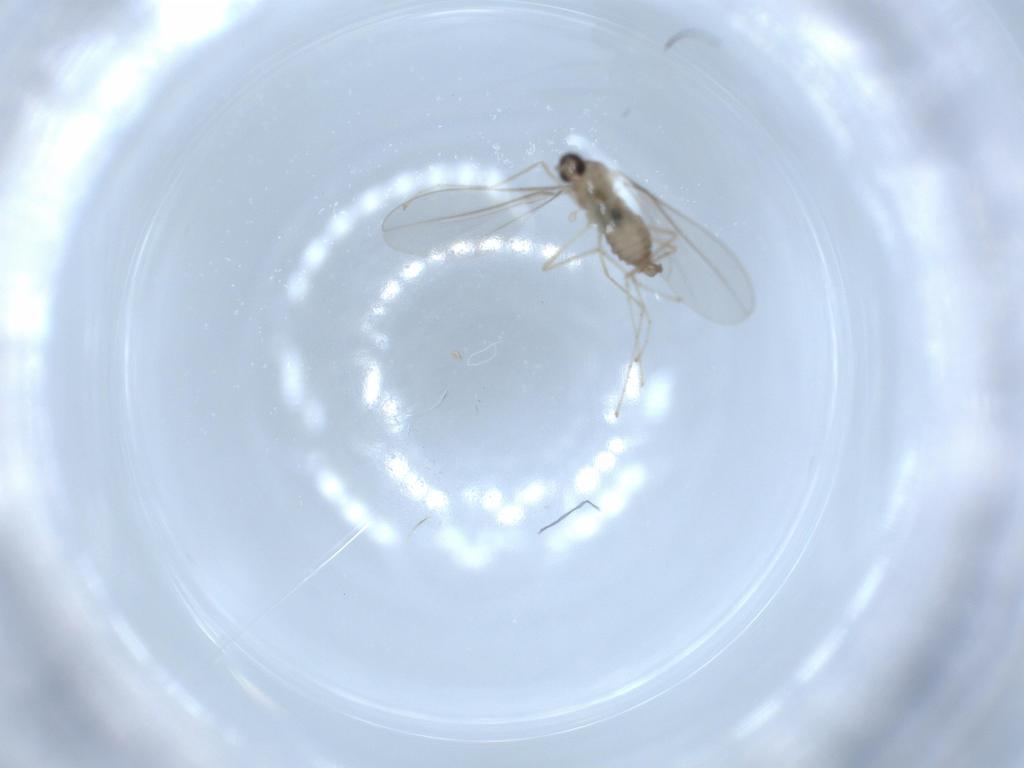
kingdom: Animalia
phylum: Arthropoda
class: Insecta
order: Diptera
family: Cecidomyiidae
